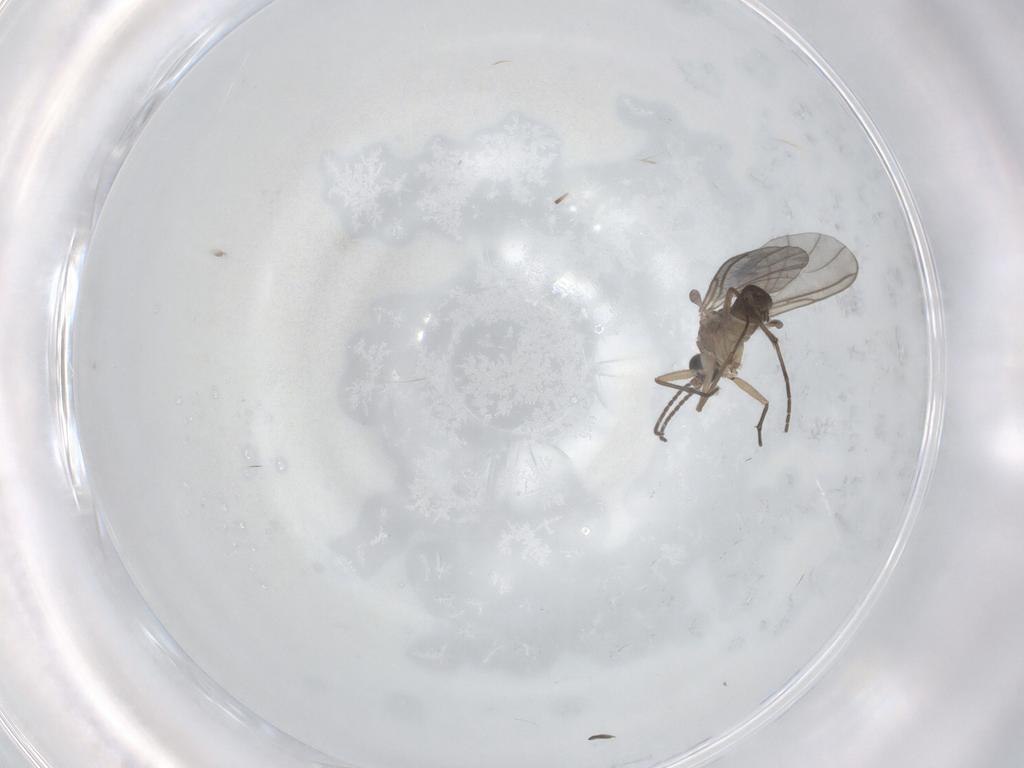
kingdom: Animalia
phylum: Arthropoda
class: Insecta
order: Diptera
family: Sciaridae
